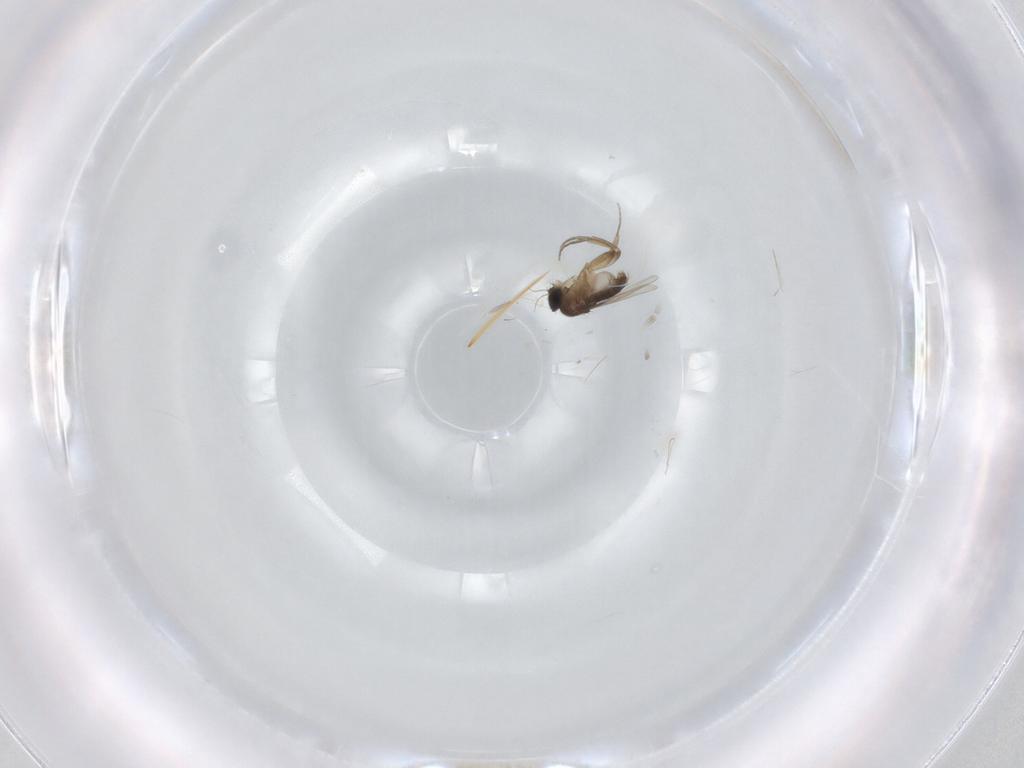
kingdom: Animalia
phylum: Arthropoda
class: Insecta
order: Diptera
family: Phoridae
